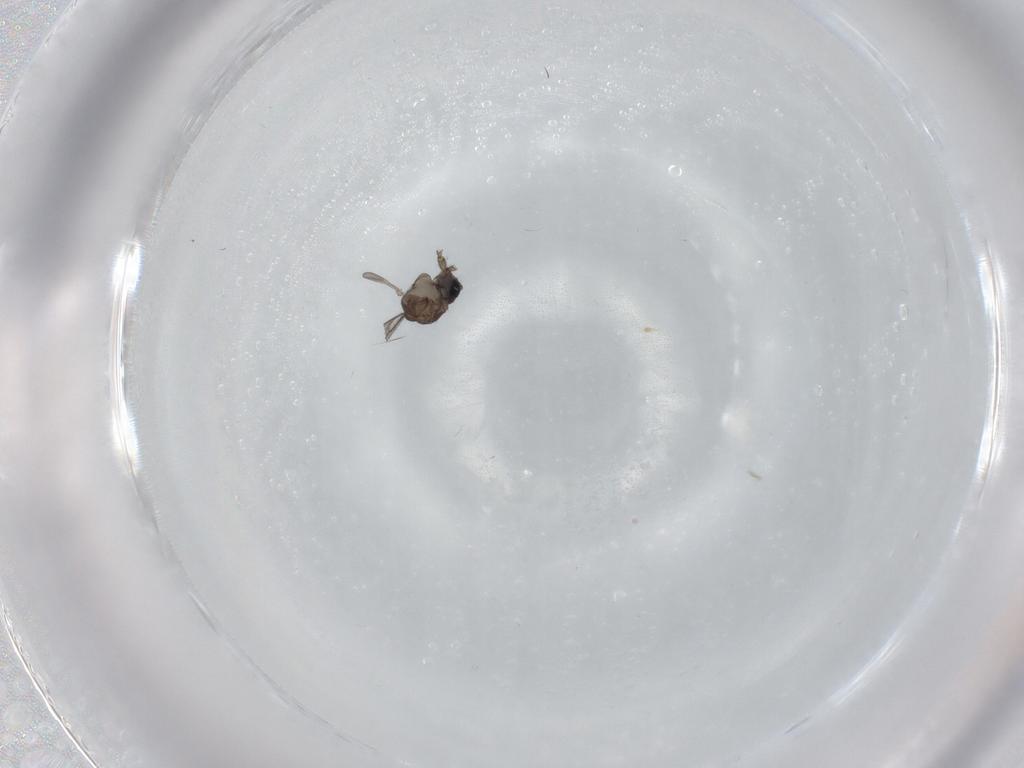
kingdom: Animalia
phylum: Arthropoda
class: Insecta
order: Diptera
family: Sciaridae
